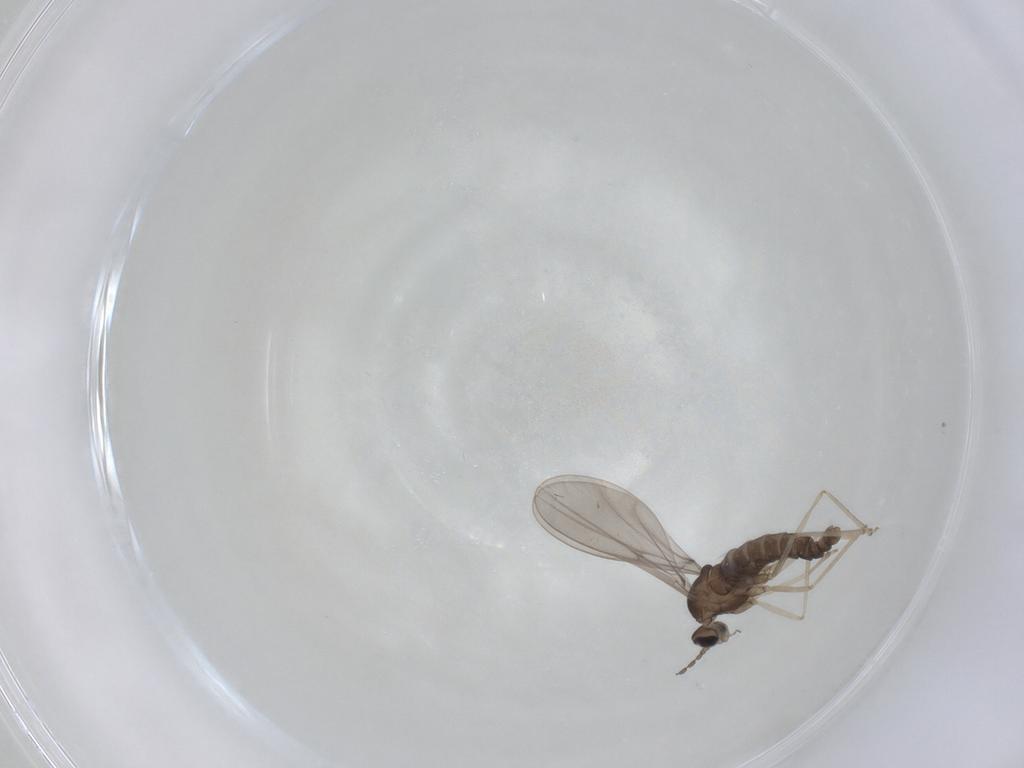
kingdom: Animalia
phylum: Arthropoda
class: Insecta
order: Diptera
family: Cecidomyiidae
